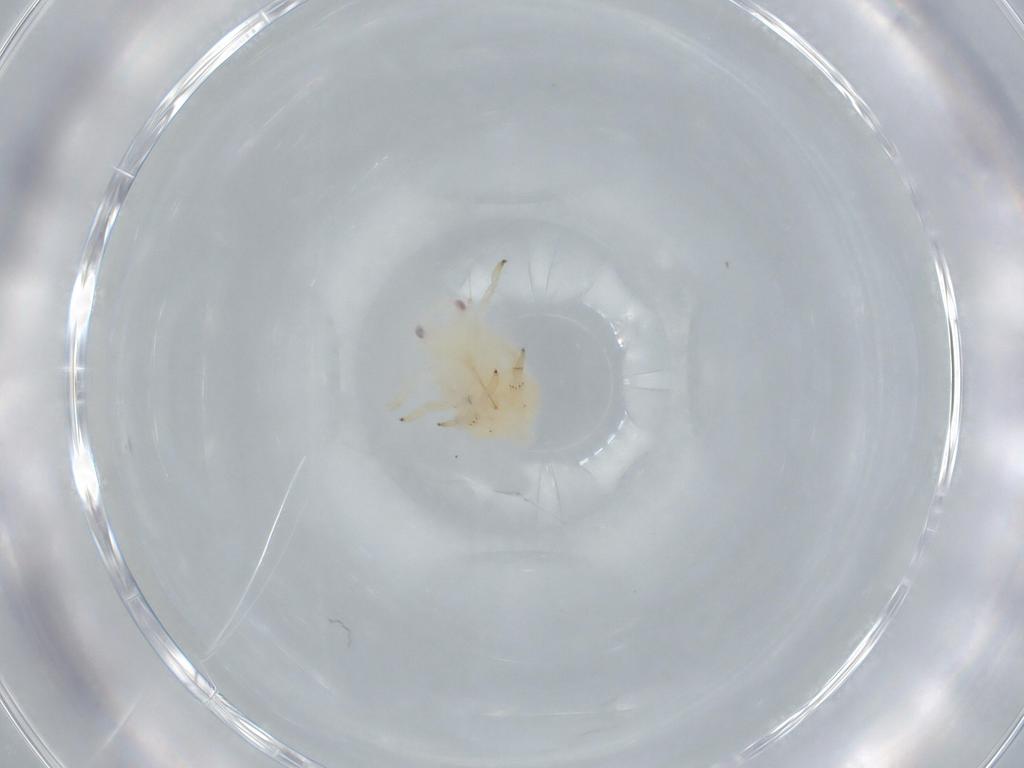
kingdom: Animalia
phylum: Arthropoda
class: Insecta
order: Hemiptera
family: Flatidae
